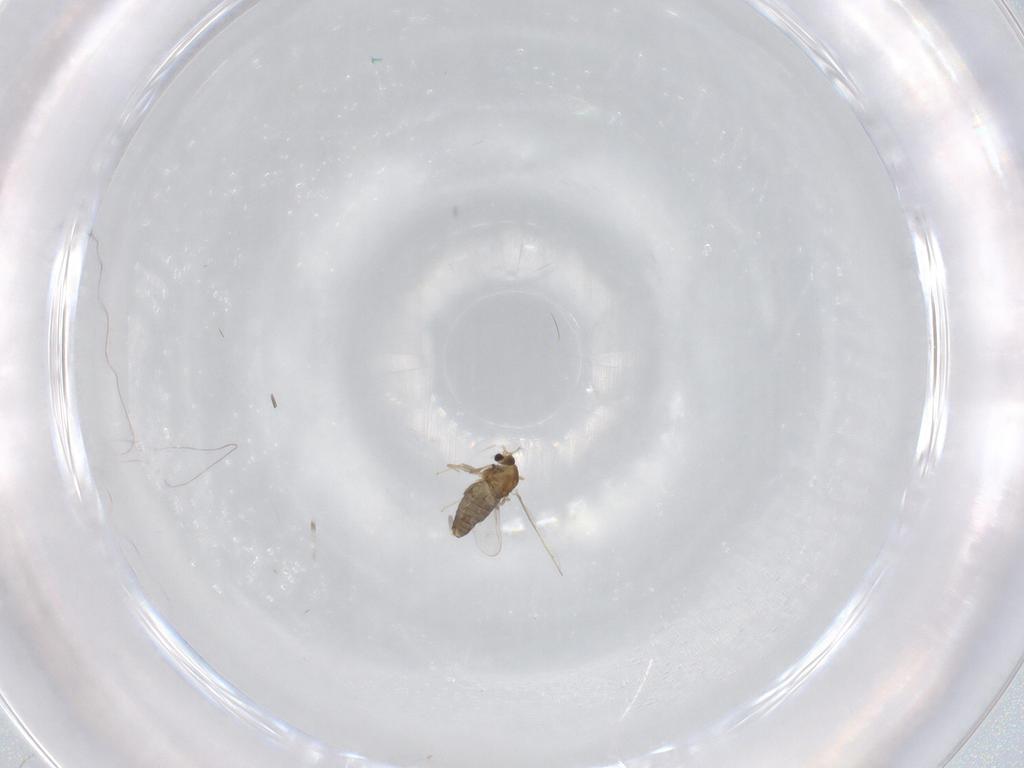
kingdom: Animalia
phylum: Arthropoda
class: Insecta
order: Diptera
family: Chironomidae
